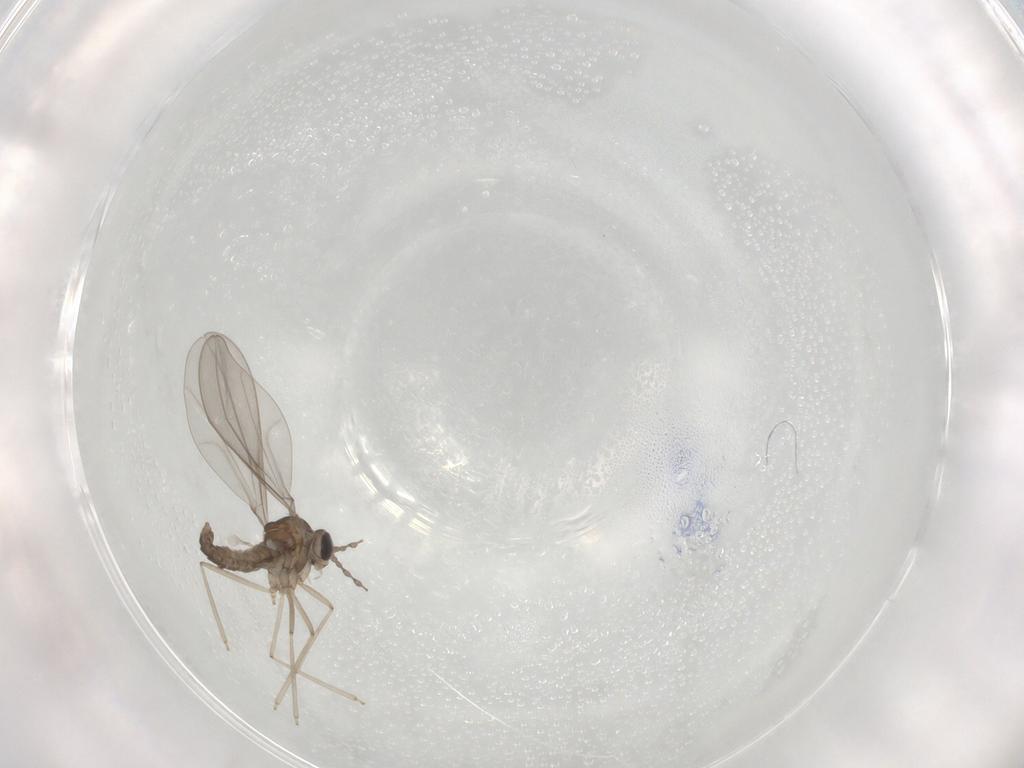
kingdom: Animalia
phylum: Arthropoda
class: Insecta
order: Diptera
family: Cecidomyiidae
